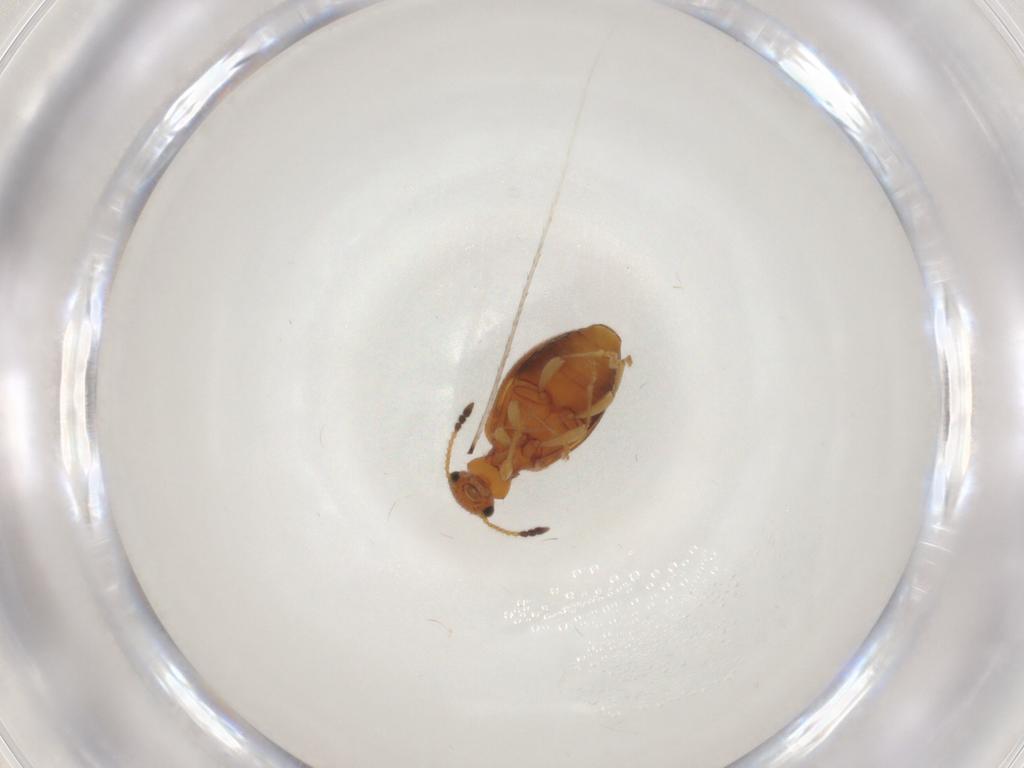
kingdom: Animalia
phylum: Arthropoda
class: Insecta
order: Coleoptera
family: Anthicidae
